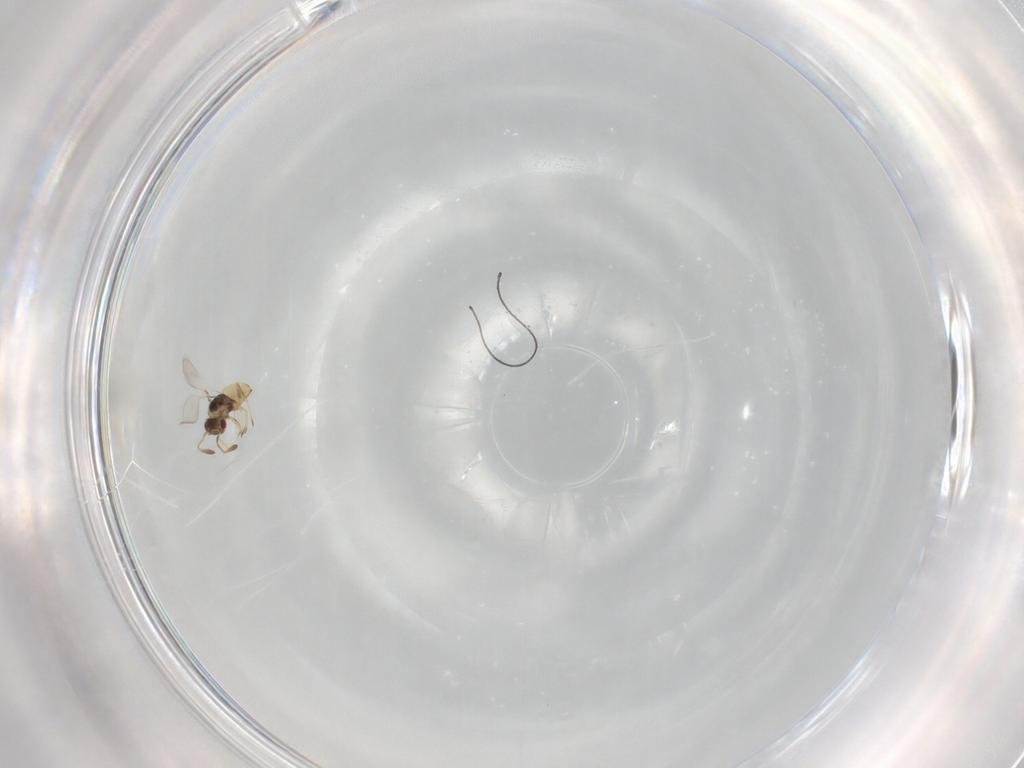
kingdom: Animalia
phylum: Arthropoda
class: Insecta
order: Hymenoptera
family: Mymaridae
